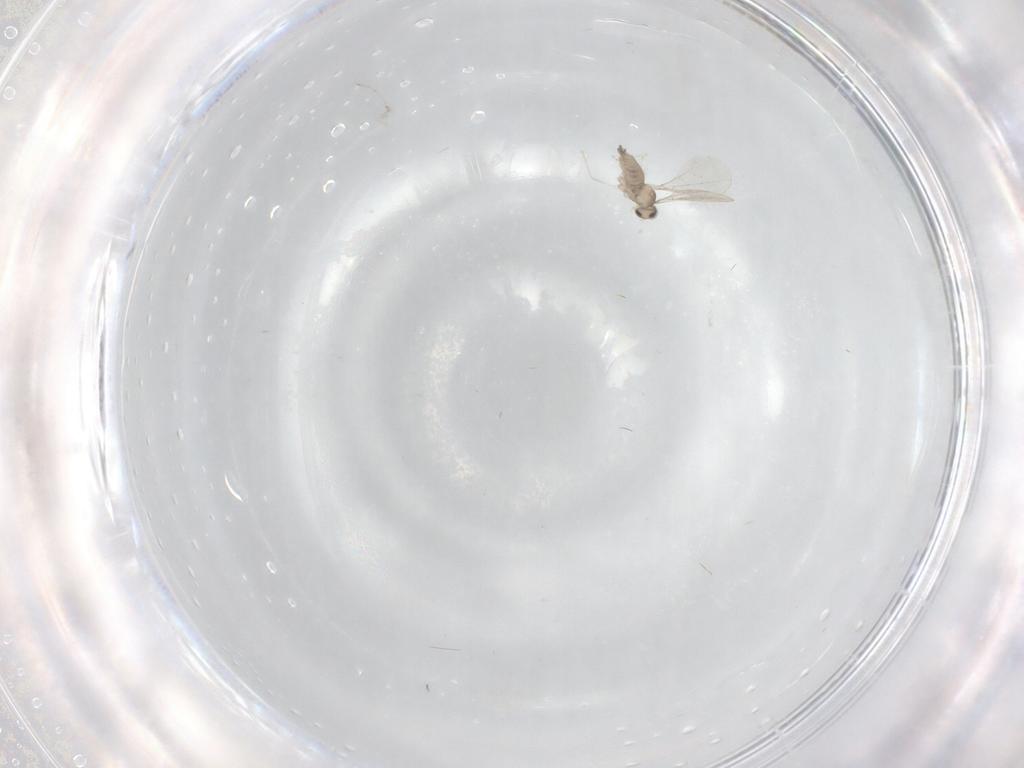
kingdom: Animalia
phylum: Arthropoda
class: Insecta
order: Diptera
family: Cecidomyiidae
